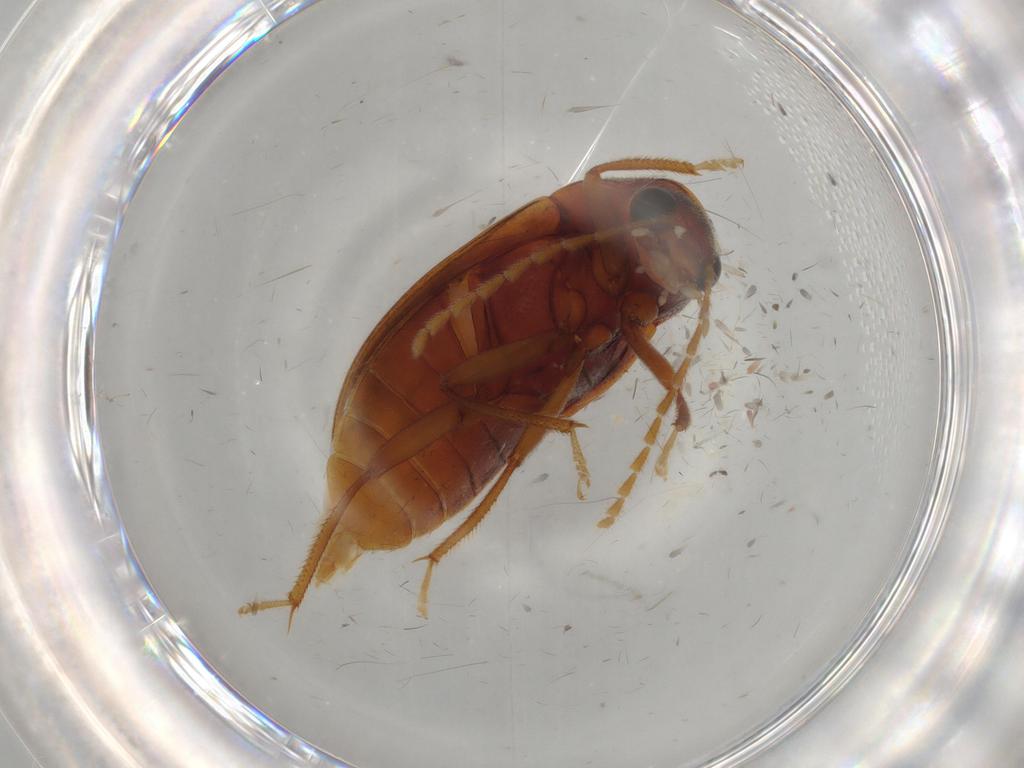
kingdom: Animalia
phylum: Arthropoda
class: Insecta
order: Coleoptera
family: Ptilodactylidae
